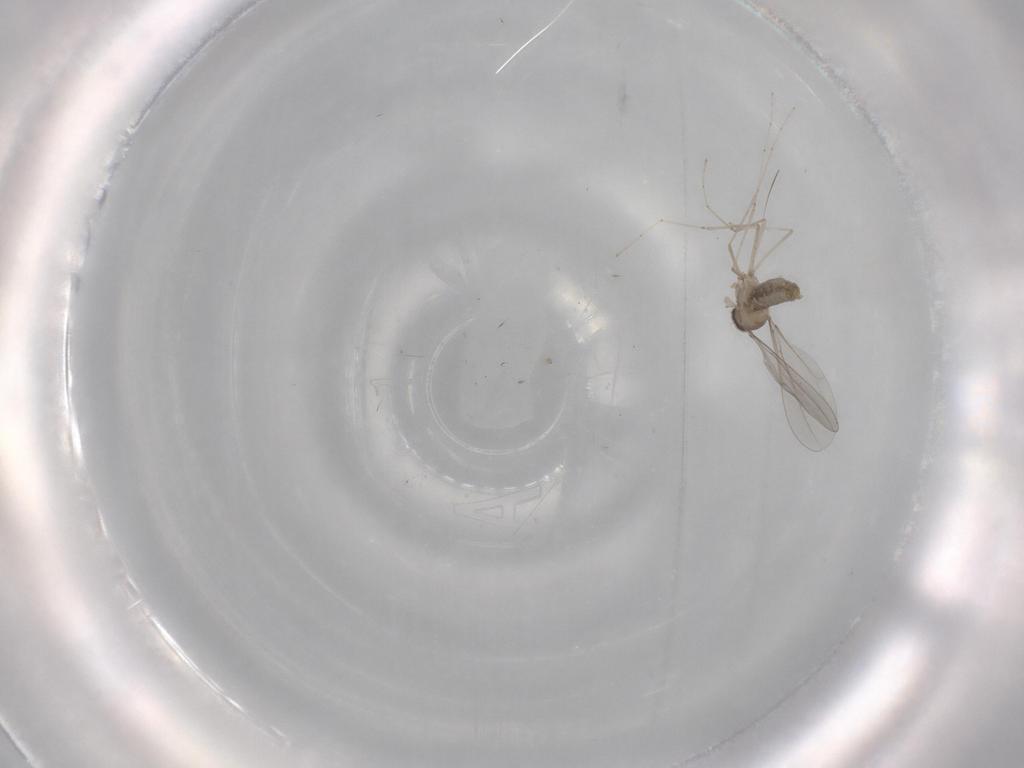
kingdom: Animalia
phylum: Arthropoda
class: Insecta
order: Diptera
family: Cecidomyiidae
